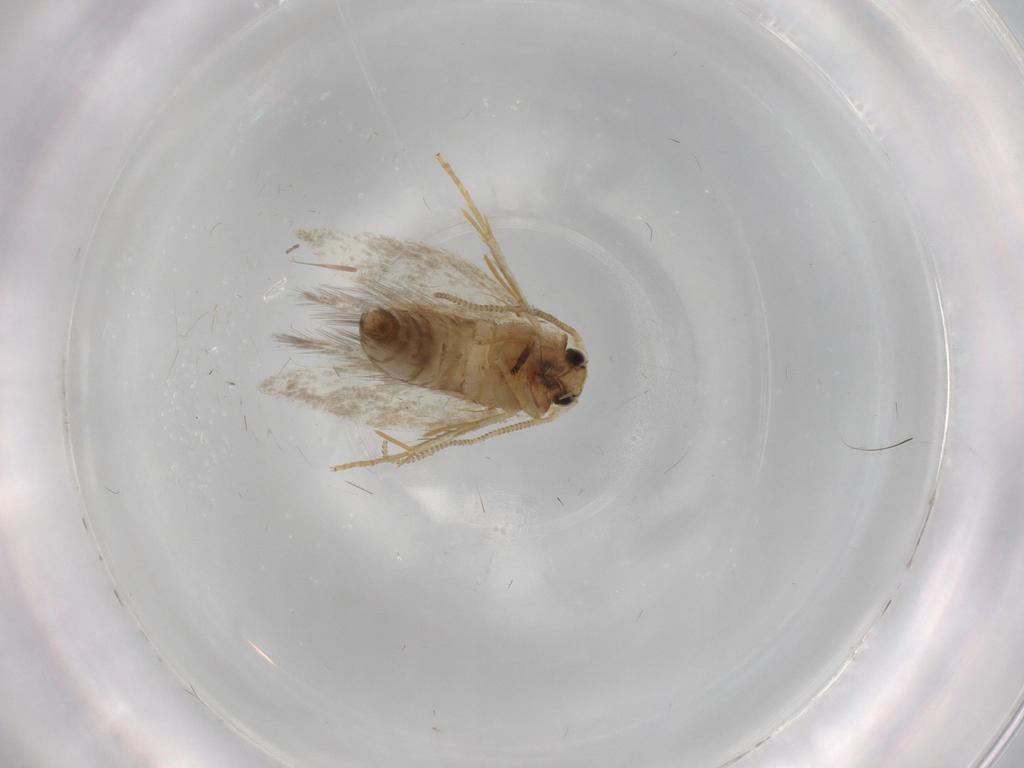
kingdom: Animalia
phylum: Arthropoda
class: Insecta
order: Lepidoptera
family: Nepticulidae
